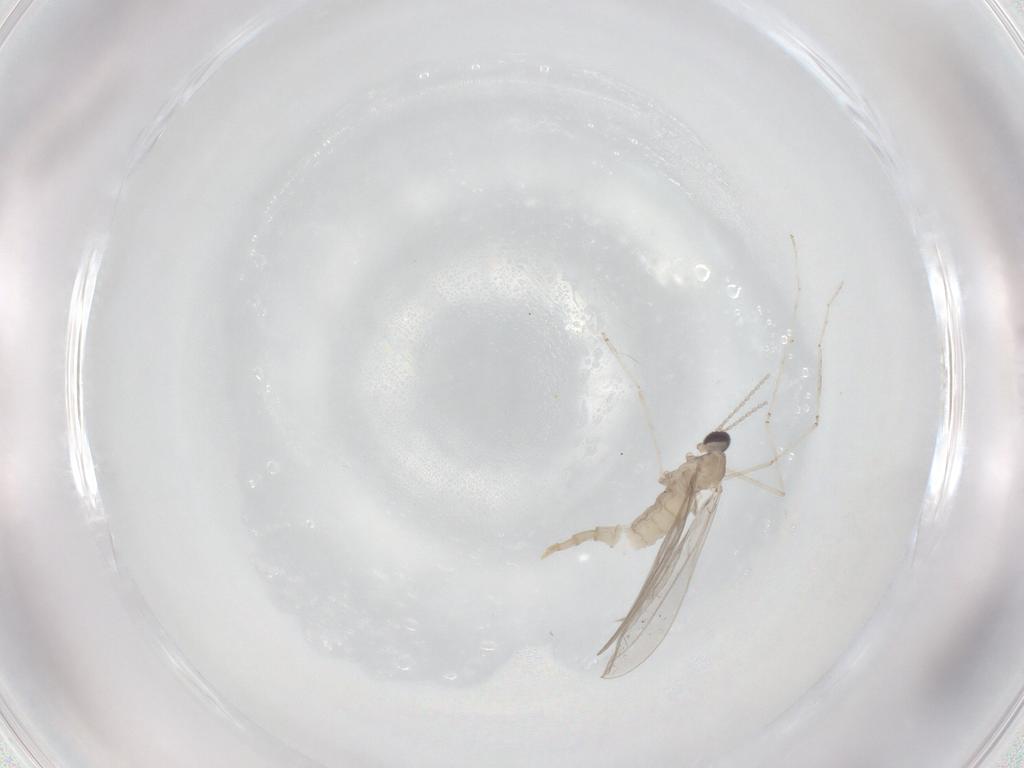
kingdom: Animalia
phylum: Arthropoda
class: Insecta
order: Diptera
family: Cecidomyiidae
